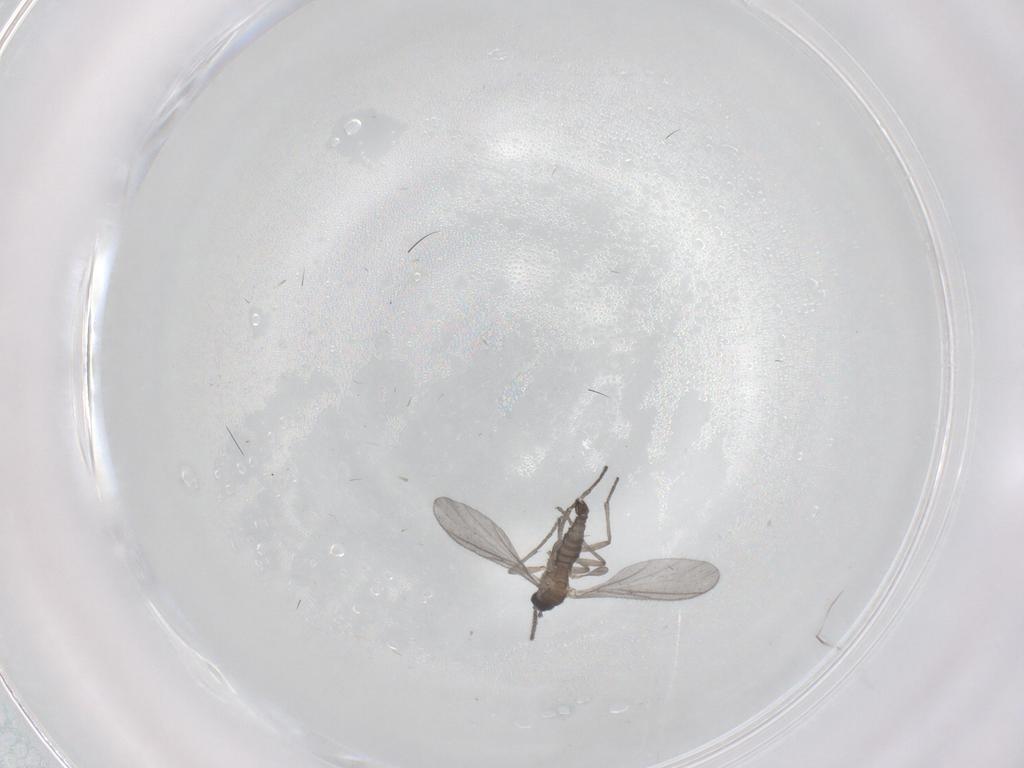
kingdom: Animalia
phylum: Arthropoda
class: Insecta
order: Diptera
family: Sciaridae
